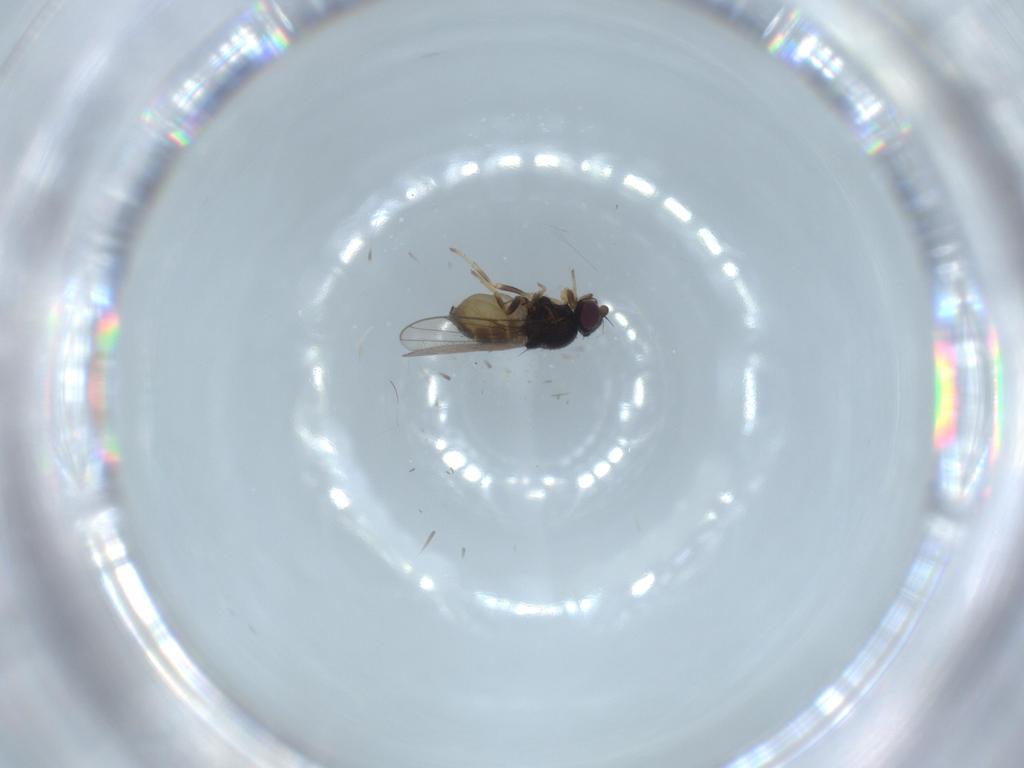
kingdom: Animalia
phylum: Arthropoda
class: Insecta
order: Diptera
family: Chloropidae
